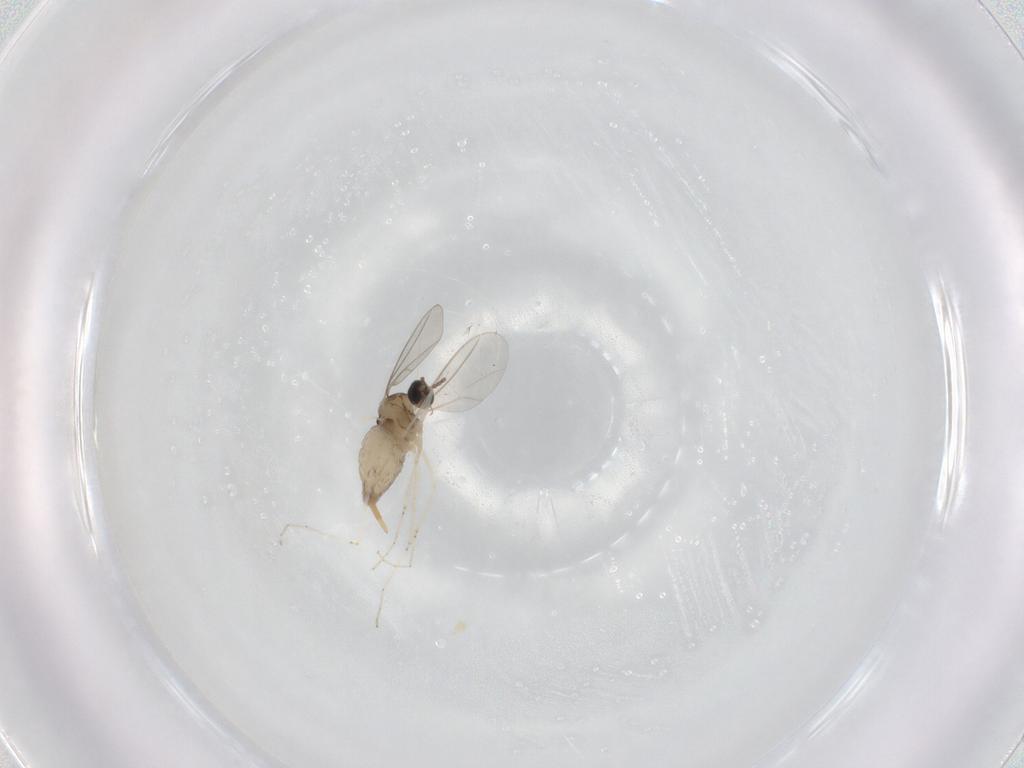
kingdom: Animalia
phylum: Arthropoda
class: Insecta
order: Diptera
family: Cecidomyiidae
